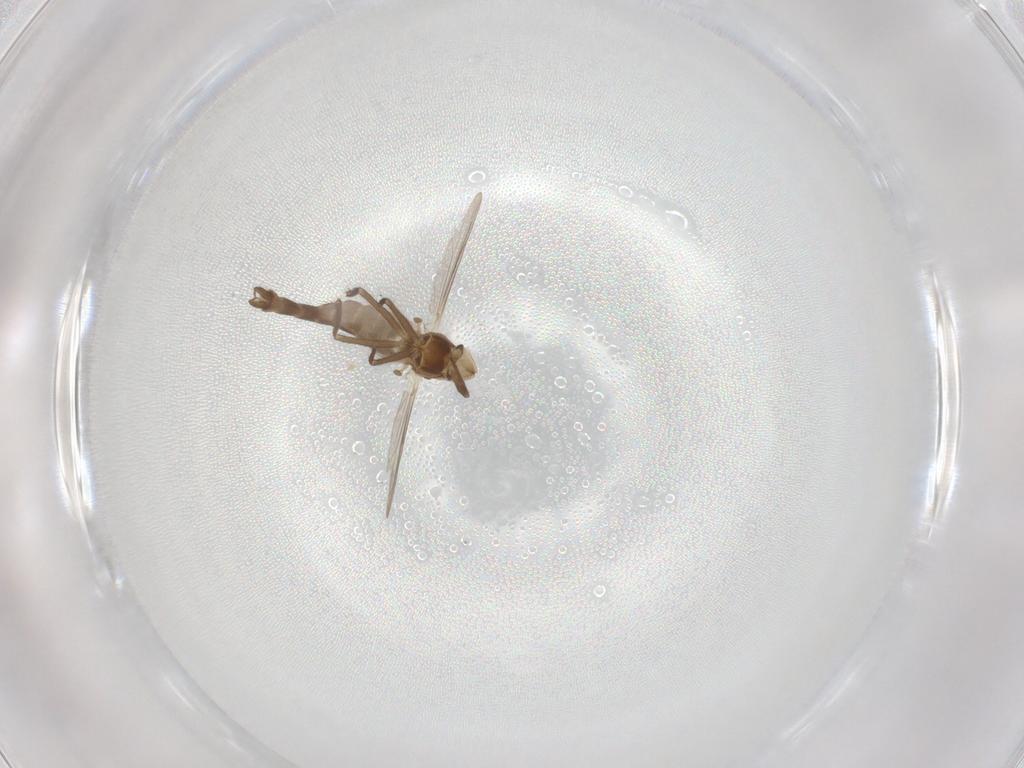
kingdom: Animalia
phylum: Arthropoda
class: Insecta
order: Diptera
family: Chironomidae
